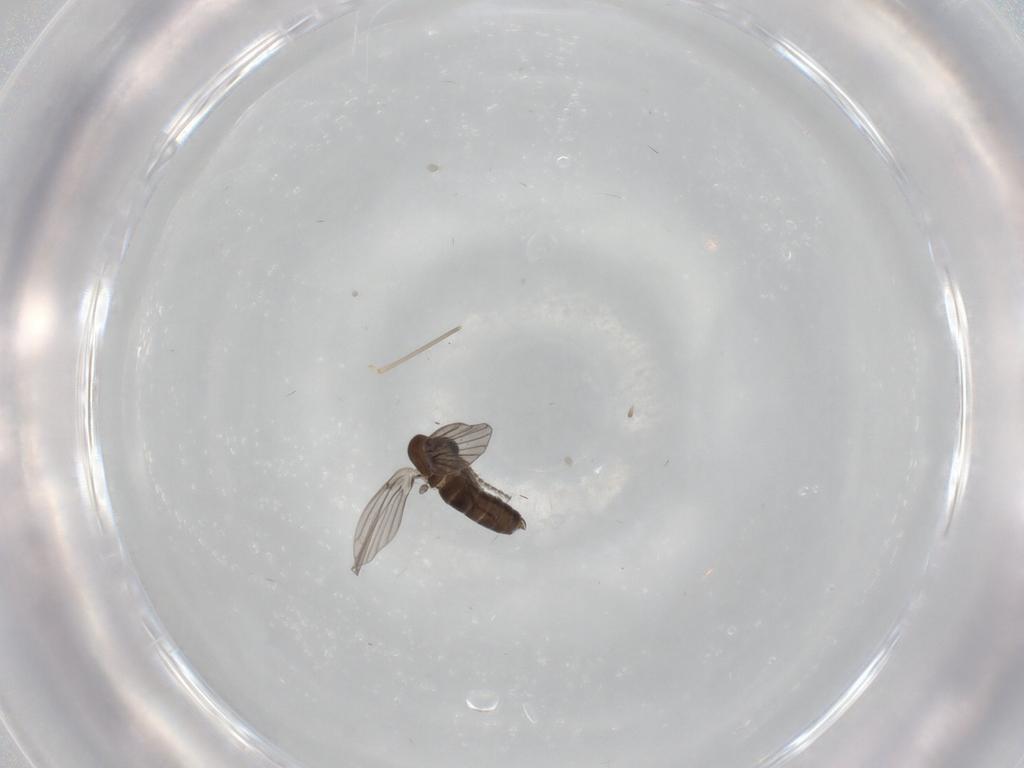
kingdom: Animalia
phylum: Arthropoda
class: Insecta
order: Diptera
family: Cecidomyiidae
